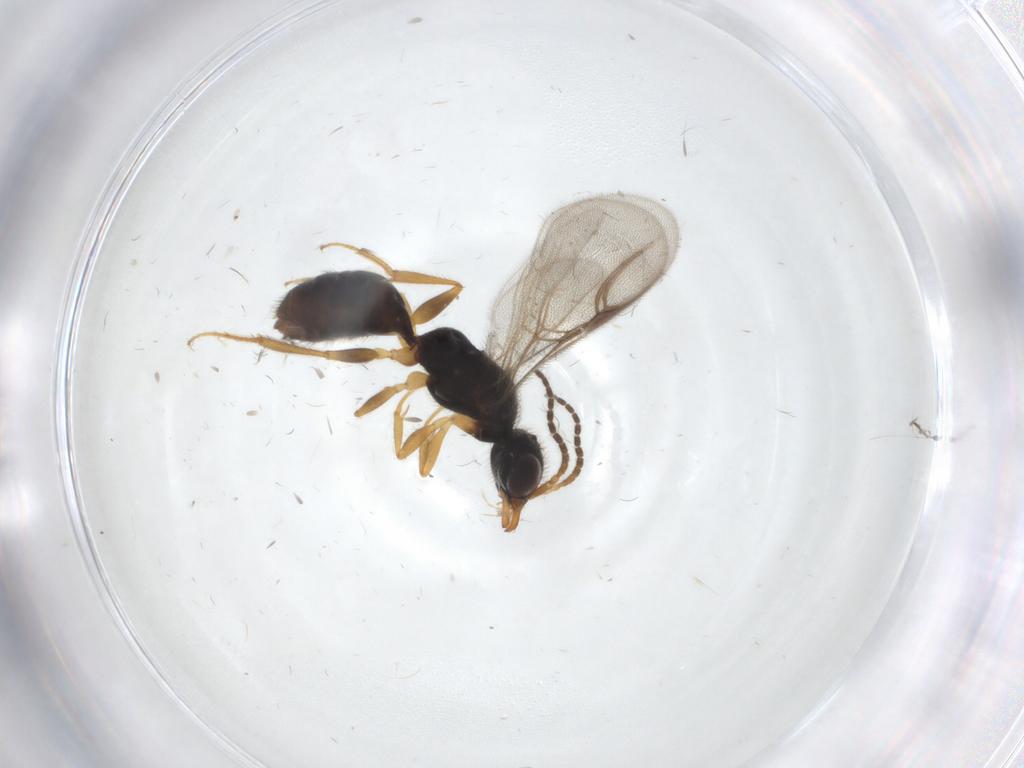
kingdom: Animalia
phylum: Arthropoda
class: Insecta
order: Hymenoptera
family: Bethylidae
